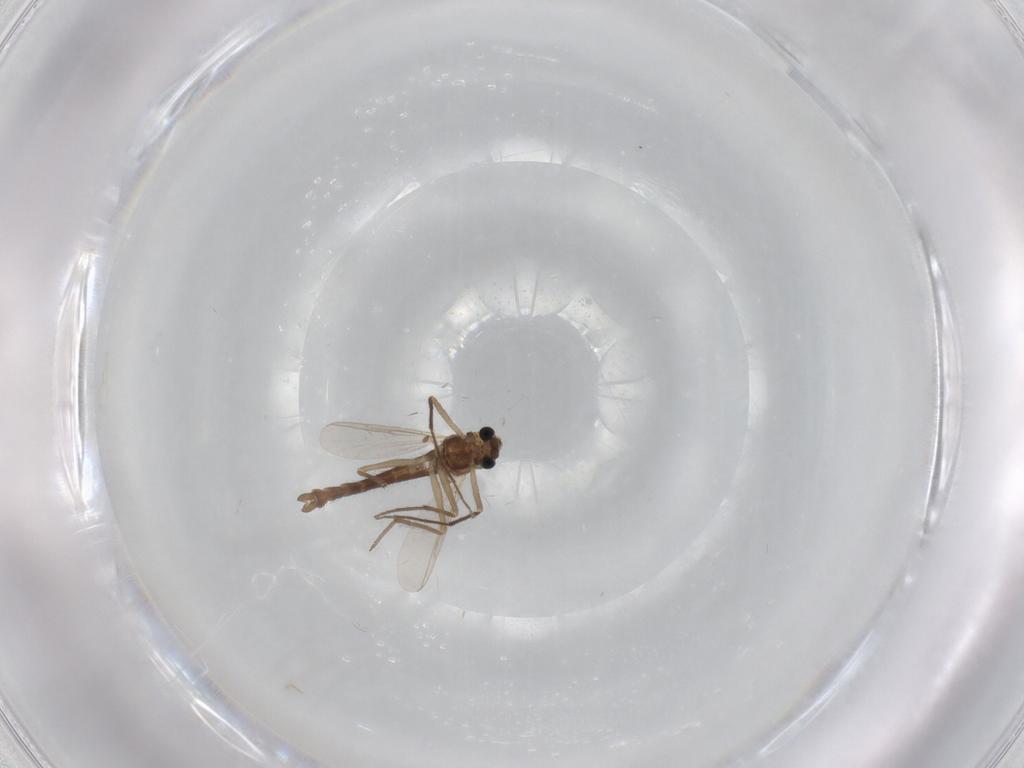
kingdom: Animalia
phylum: Arthropoda
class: Insecta
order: Diptera
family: Chironomidae
